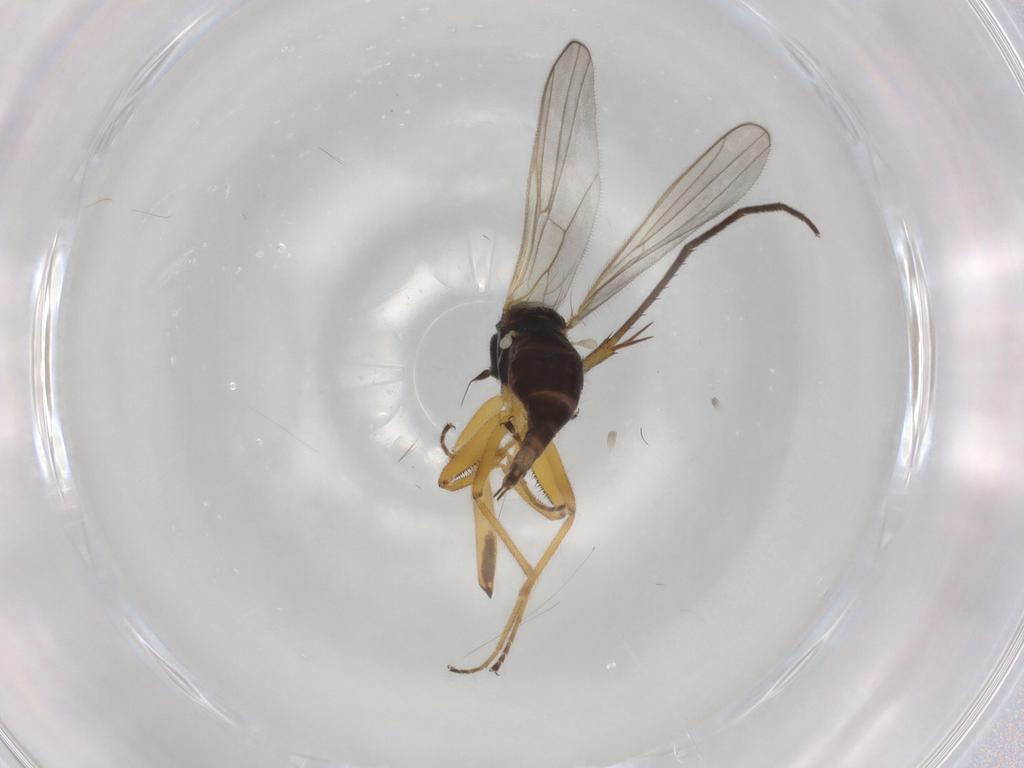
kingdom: Animalia
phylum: Arthropoda
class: Insecta
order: Diptera
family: Hybotidae
